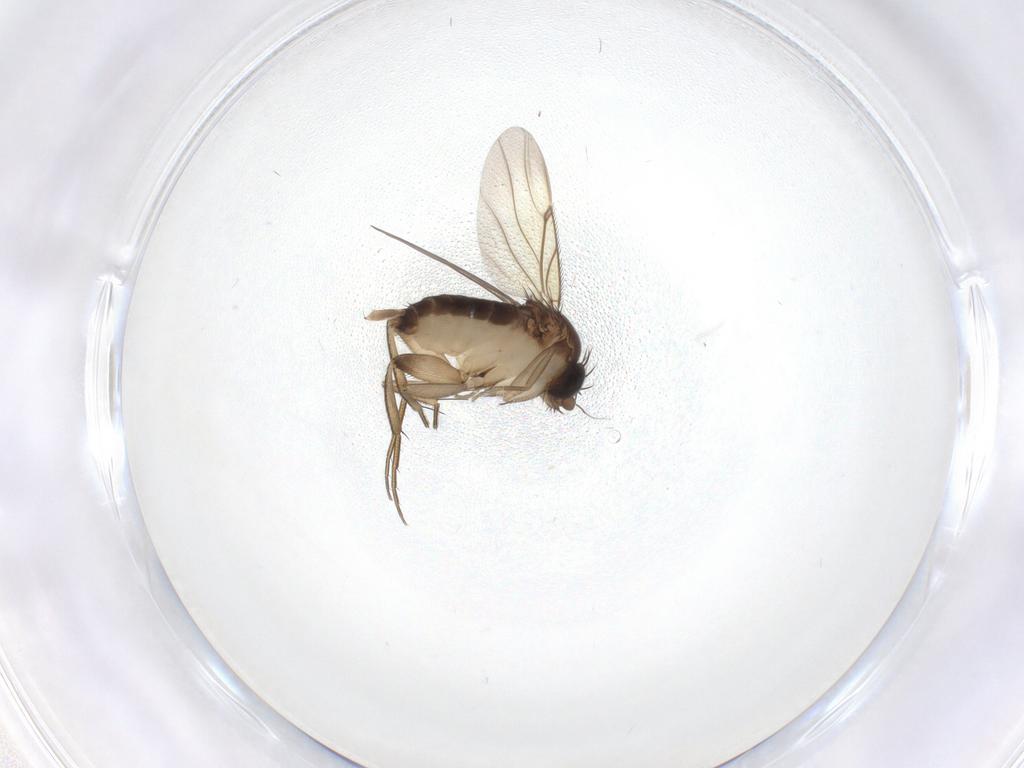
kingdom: Animalia
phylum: Arthropoda
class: Insecta
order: Diptera
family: Phoridae
